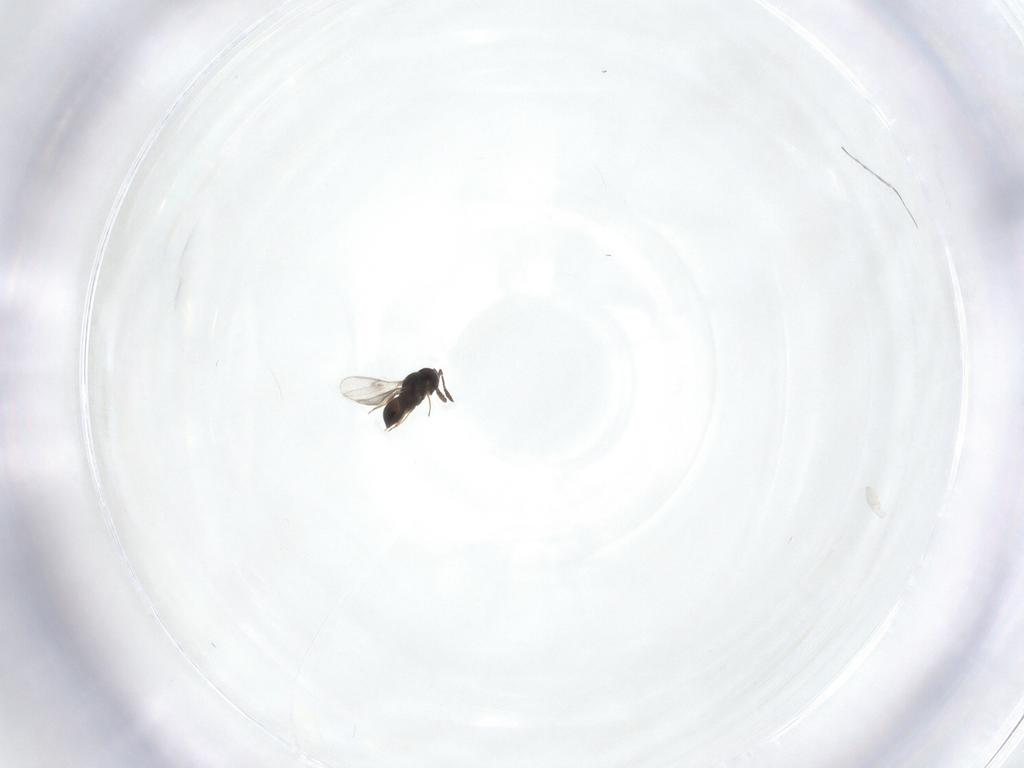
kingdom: Animalia
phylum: Arthropoda
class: Insecta
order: Hymenoptera
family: Scelionidae
